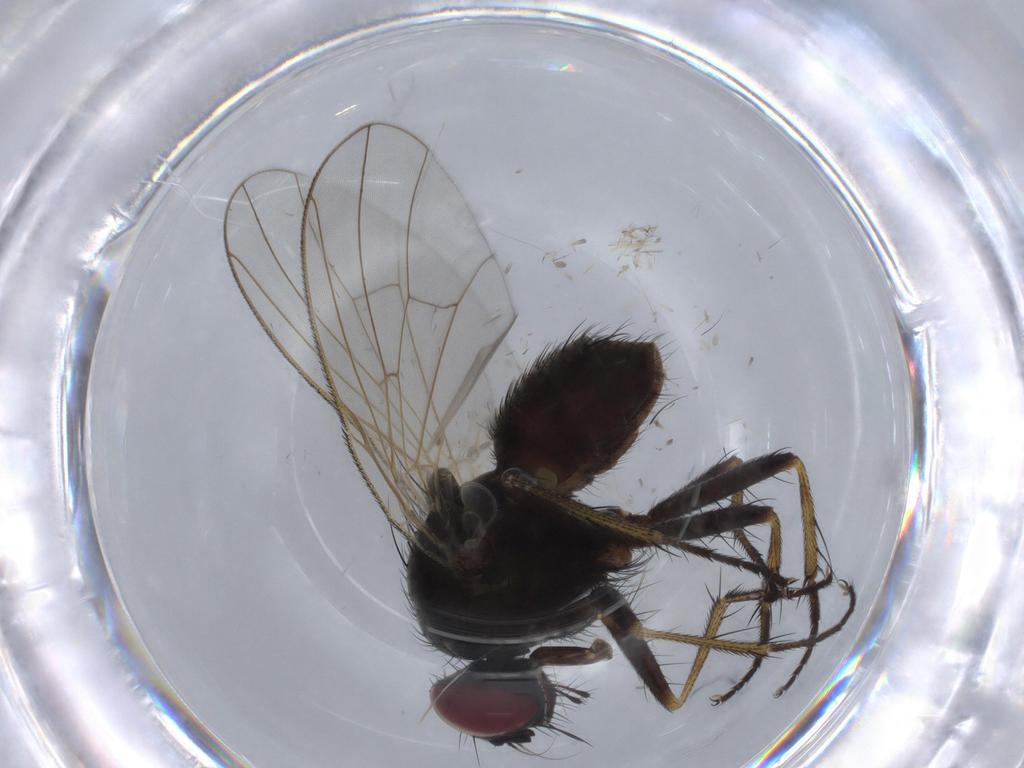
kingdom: Animalia
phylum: Arthropoda
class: Insecta
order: Diptera
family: Muscidae
